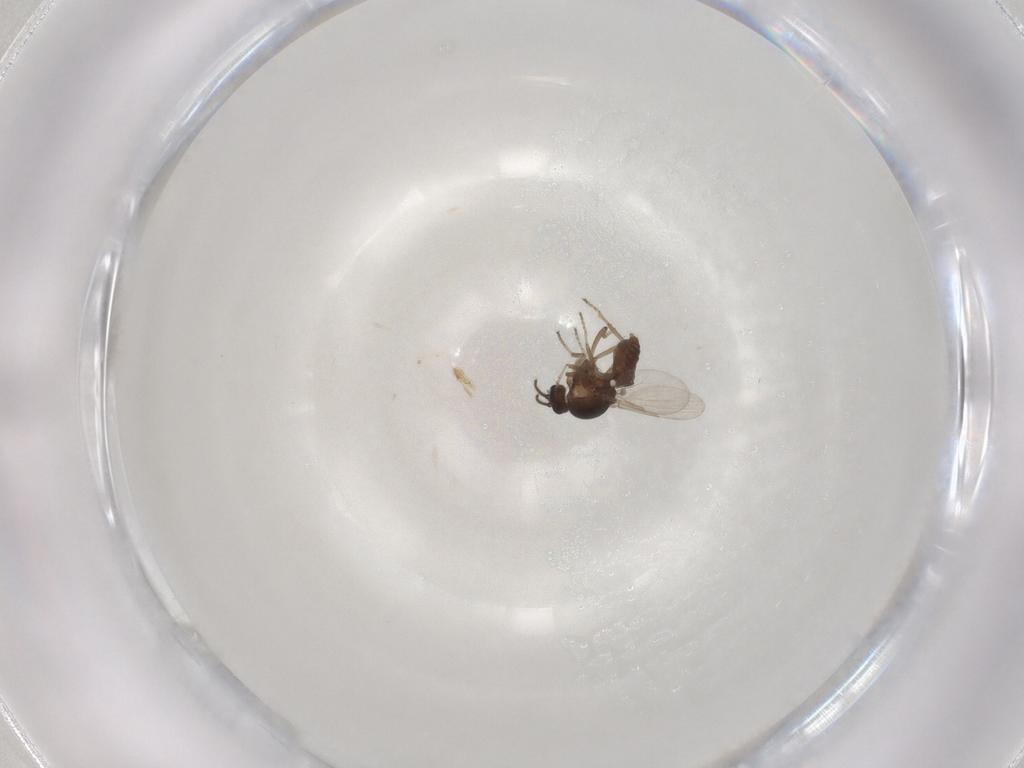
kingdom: Animalia
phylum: Arthropoda
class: Insecta
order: Diptera
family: Ceratopogonidae
